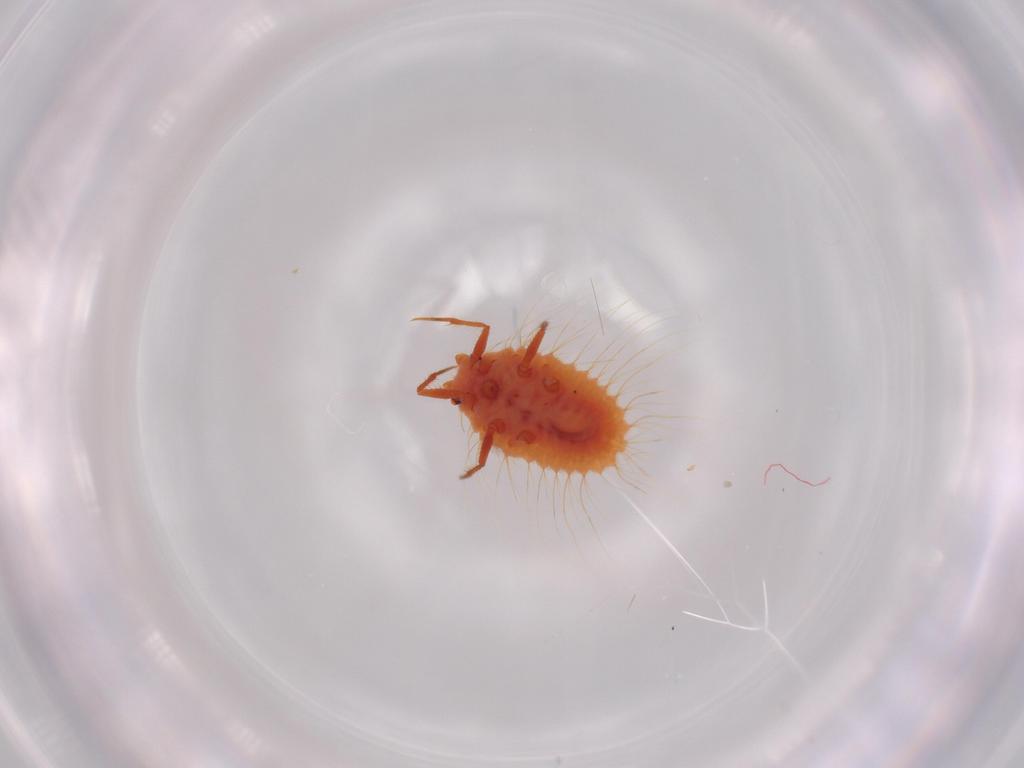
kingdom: Animalia
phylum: Arthropoda
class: Insecta
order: Hemiptera
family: Coccoidea_incertae_sedis
